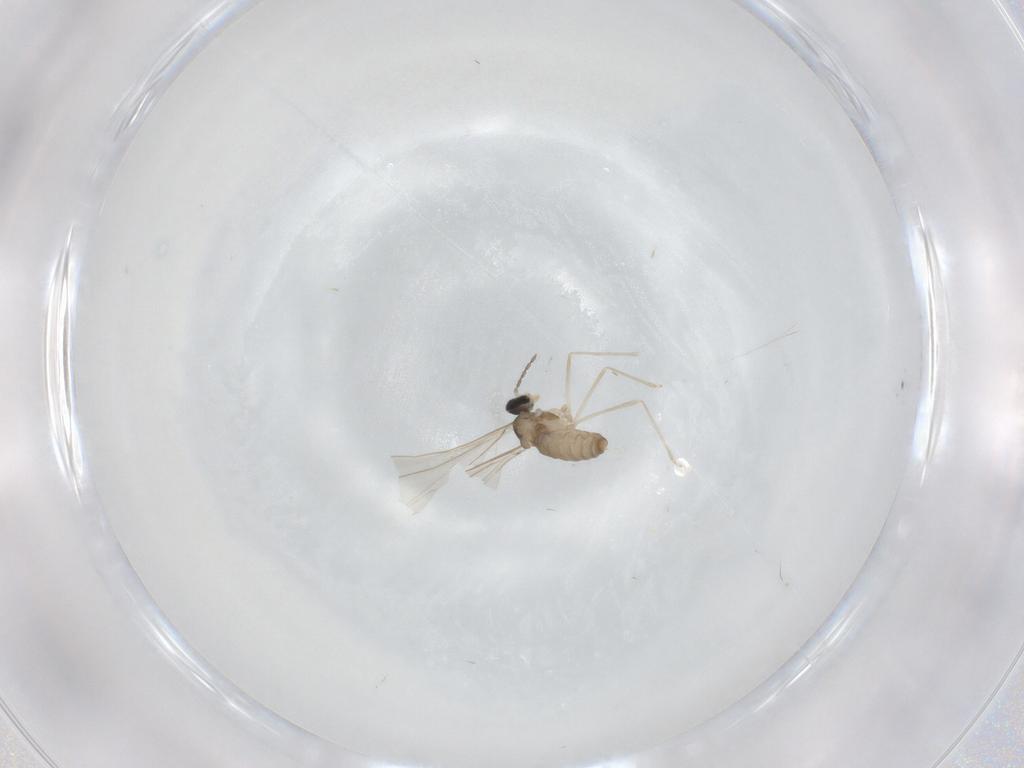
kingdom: Animalia
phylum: Arthropoda
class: Insecta
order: Diptera
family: Cecidomyiidae
